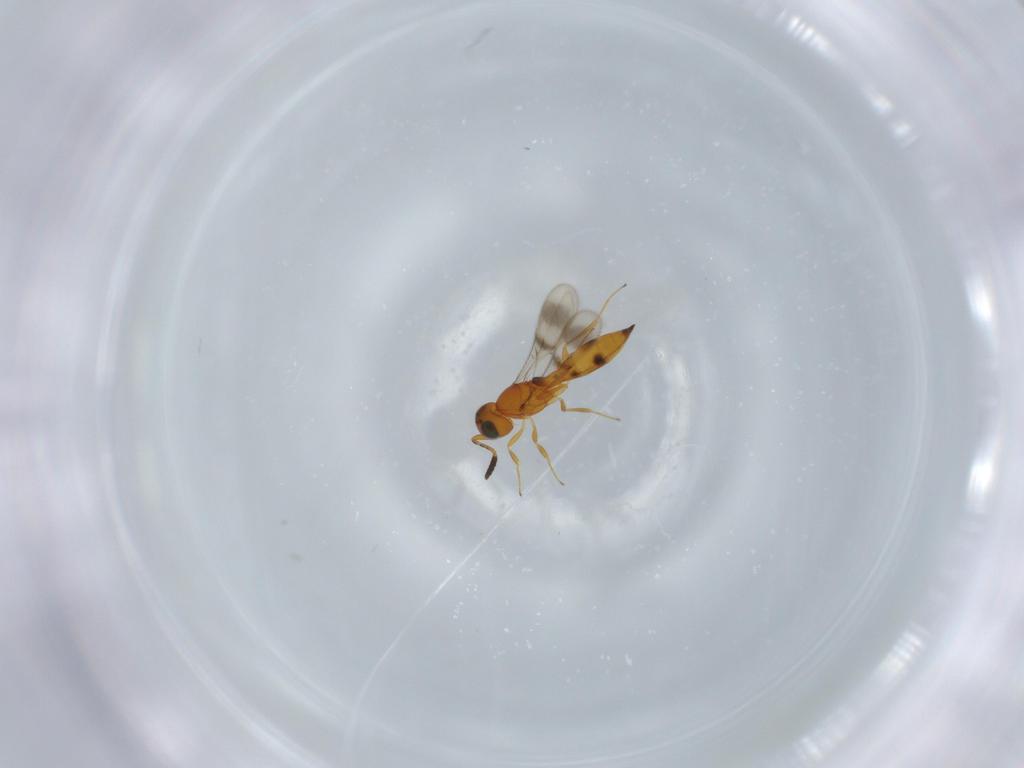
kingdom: Animalia
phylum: Arthropoda
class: Insecta
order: Hymenoptera
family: Scelionidae
